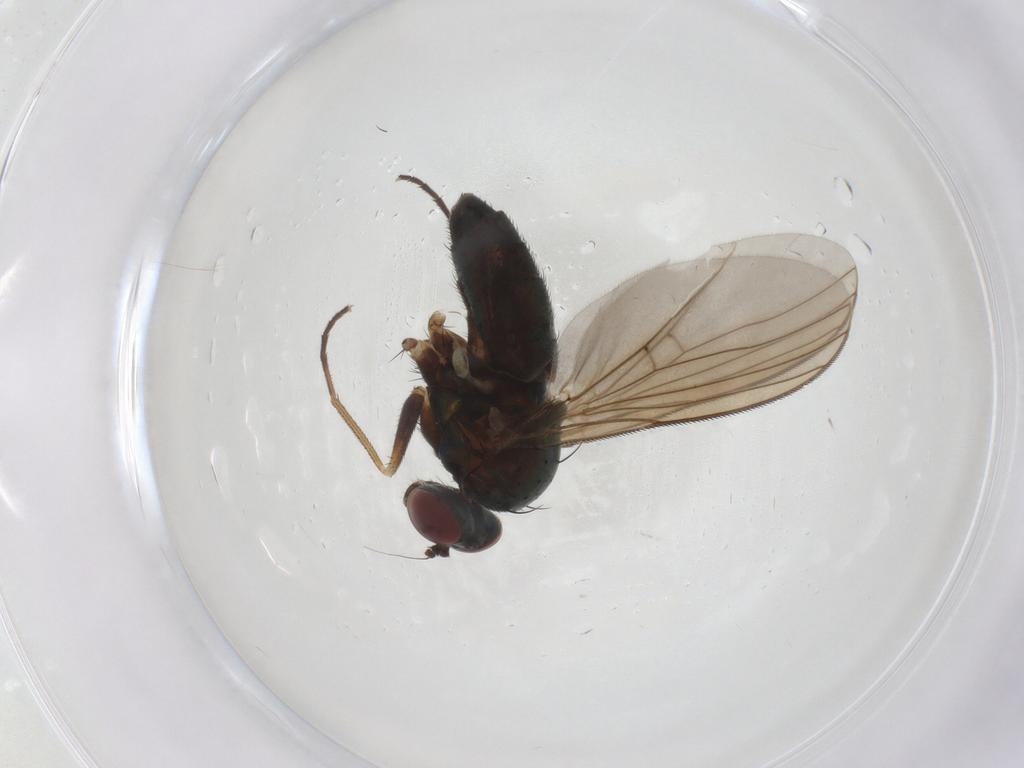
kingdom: Animalia
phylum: Arthropoda
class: Insecta
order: Diptera
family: Dolichopodidae
